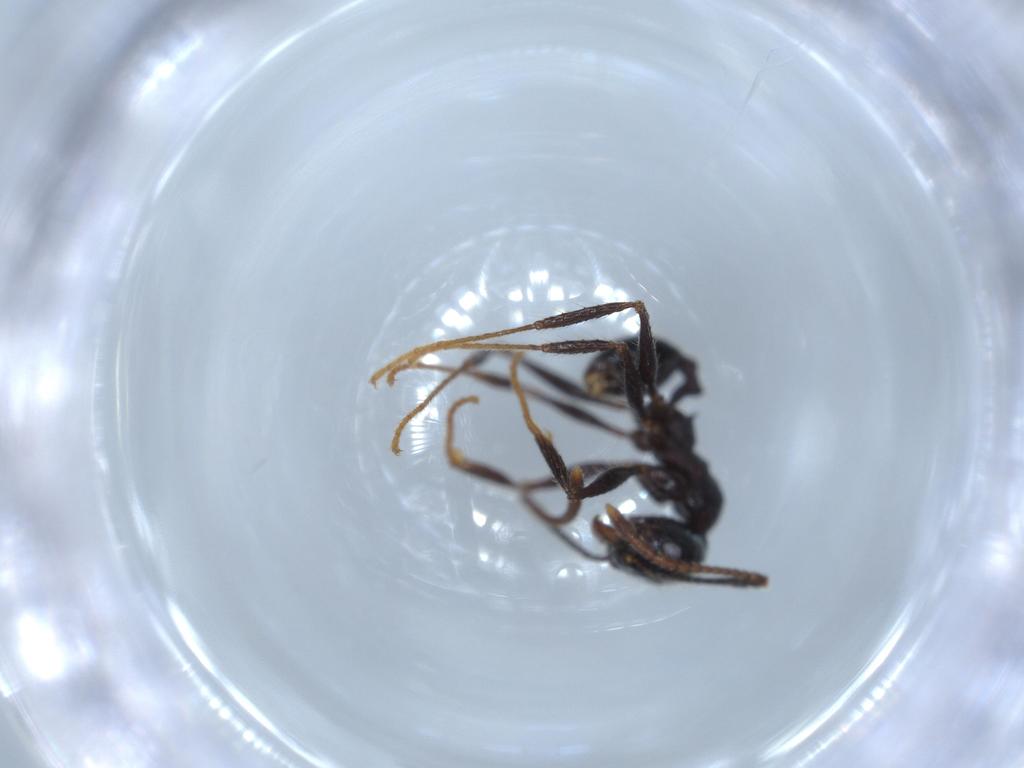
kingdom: Animalia
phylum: Arthropoda
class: Insecta
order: Hymenoptera
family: Formicidae
